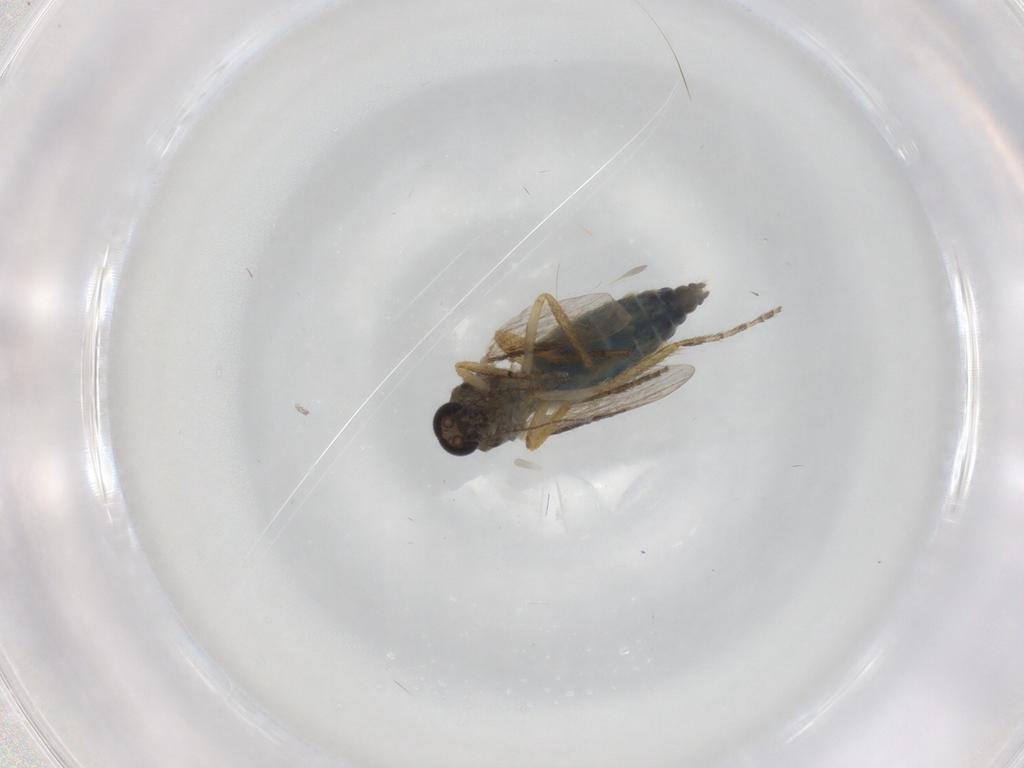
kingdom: Animalia
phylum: Arthropoda
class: Insecta
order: Diptera
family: Ceratopogonidae
